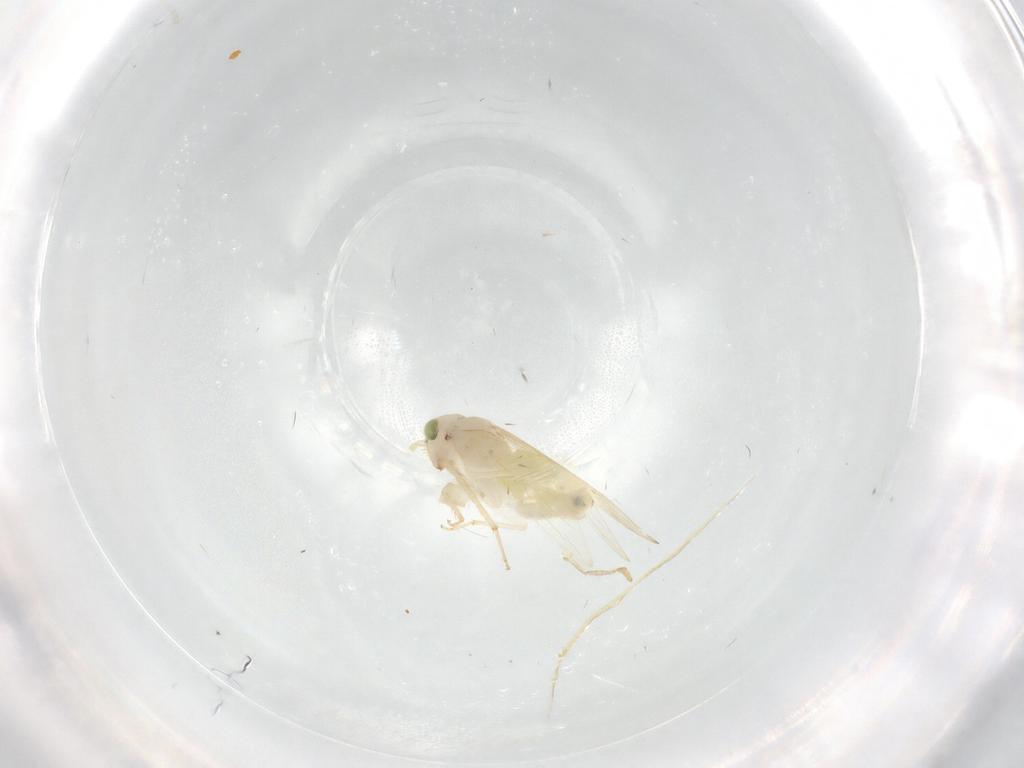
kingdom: Animalia
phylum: Arthropoda
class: Insecta
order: Psocodea
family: Lepidopsocidae
